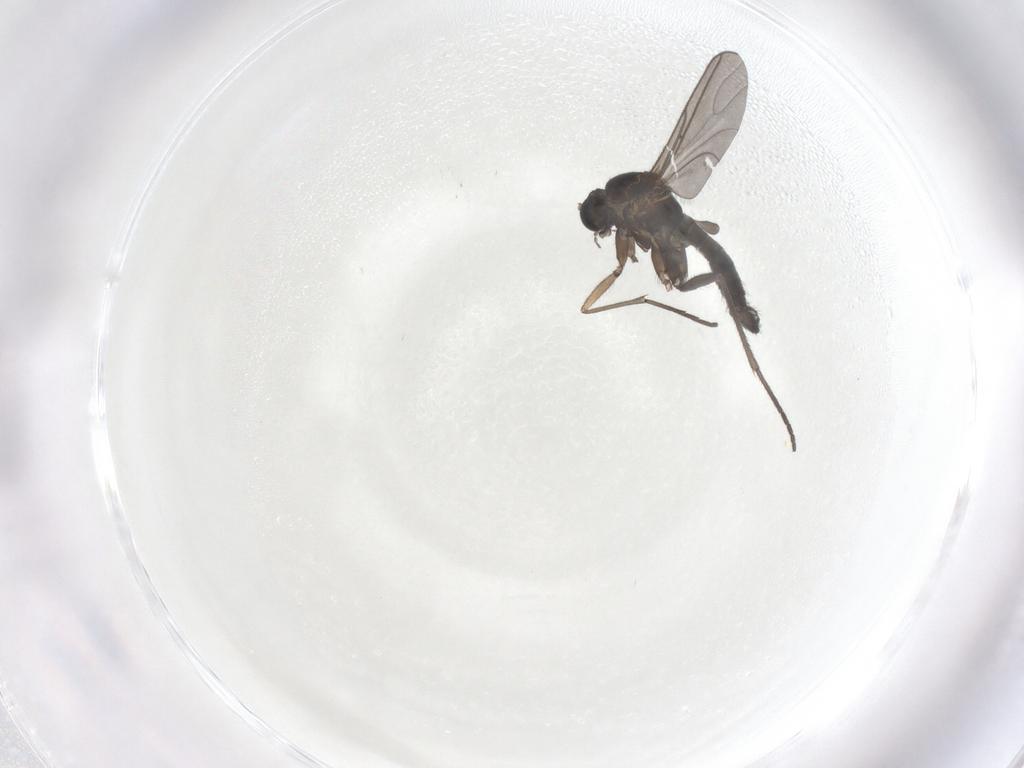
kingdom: Animalia
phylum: Arthropoda
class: Insecta
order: Diptera
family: Sciaridae
